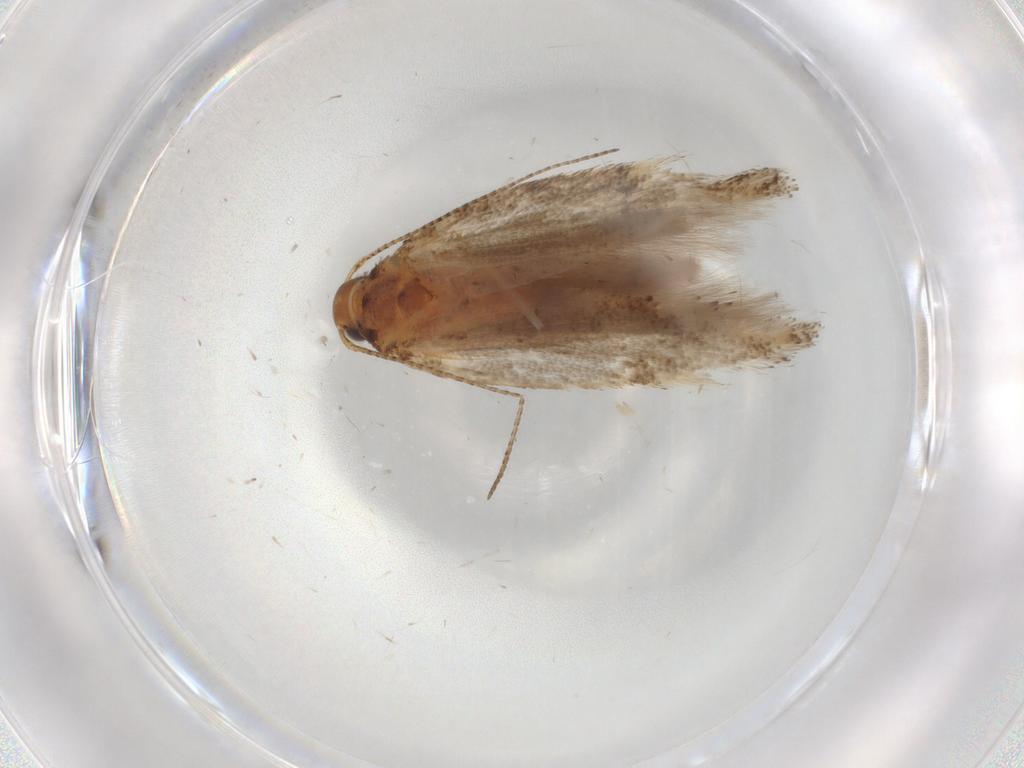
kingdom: Animalia
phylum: Arthropoda
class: Insecta
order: Lepidoptera
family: Gelechiidae
